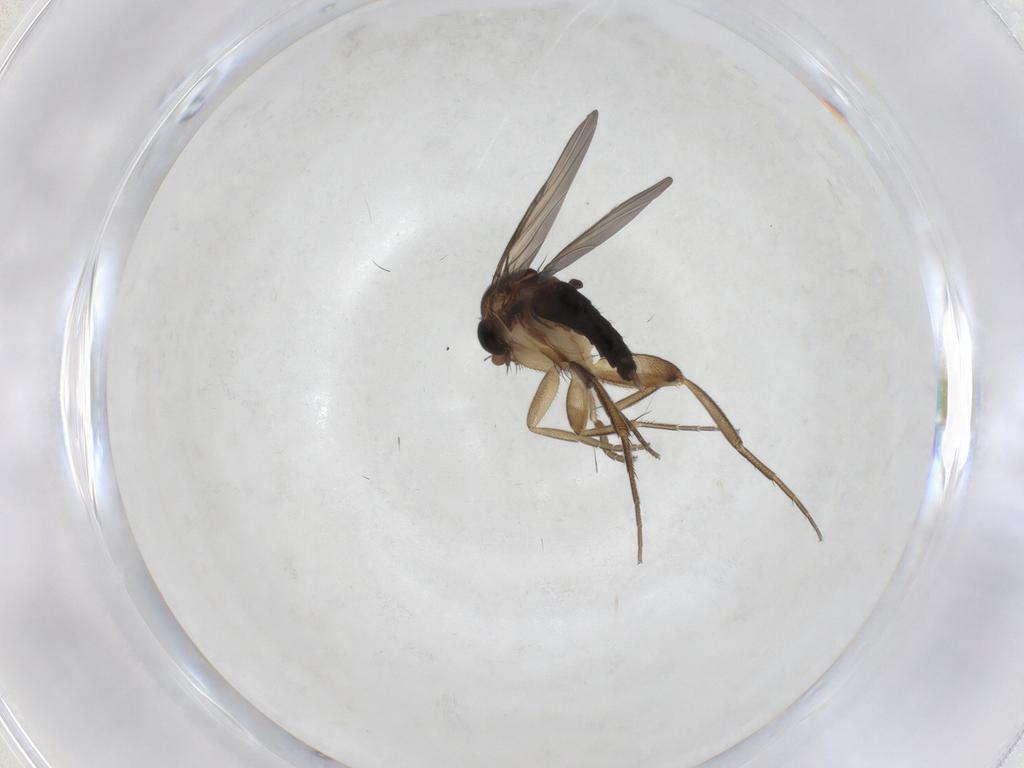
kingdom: Animalia
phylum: Arthropoda
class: Insecta
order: Diptera
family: Phoridae
